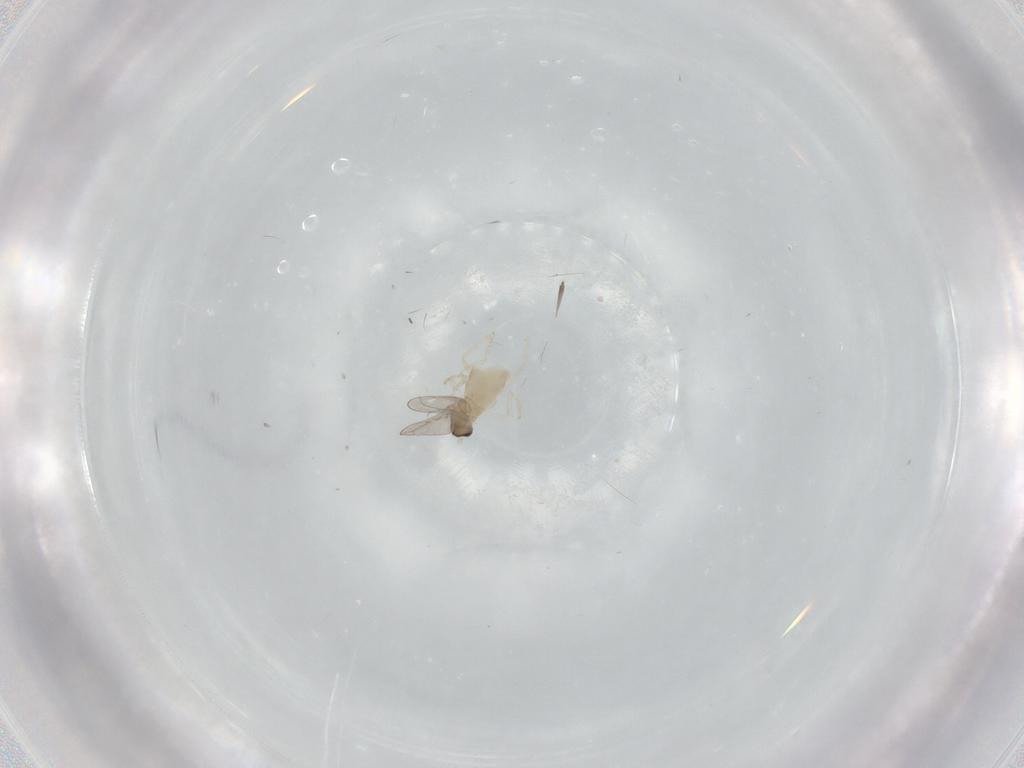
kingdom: Animalia
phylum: Arthropoda
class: Insecta
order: Diptera
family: Cecidomyiidae
